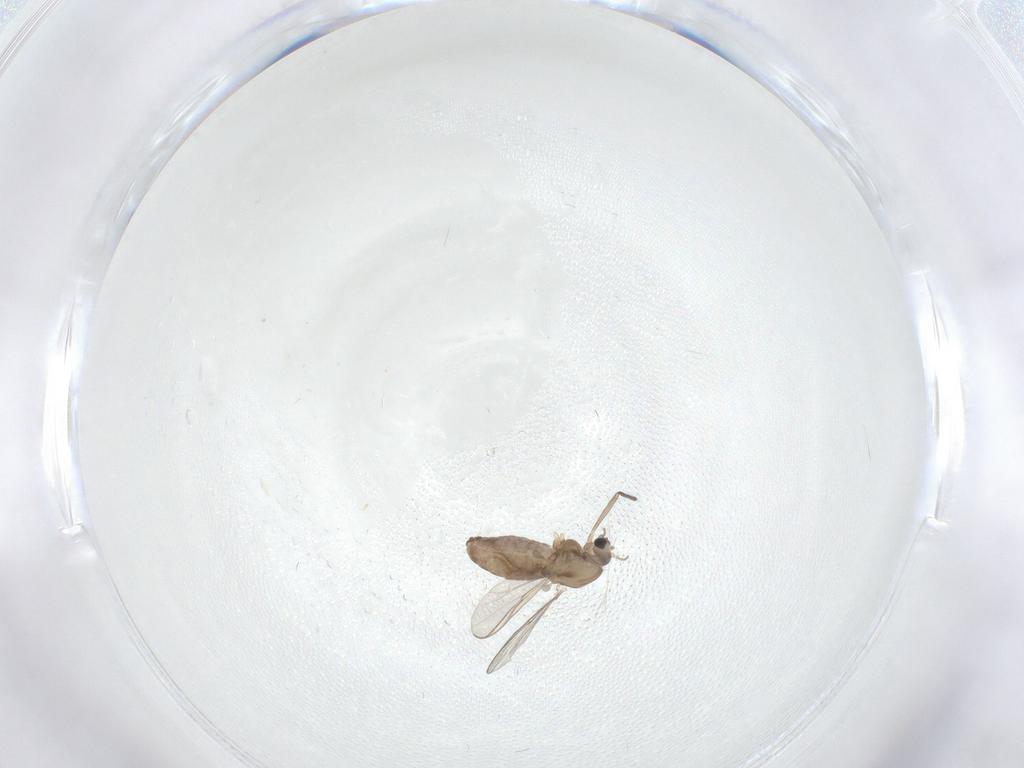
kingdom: Animalia
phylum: Arthropoda
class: Insecta
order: Diptera
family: Chironomidae
